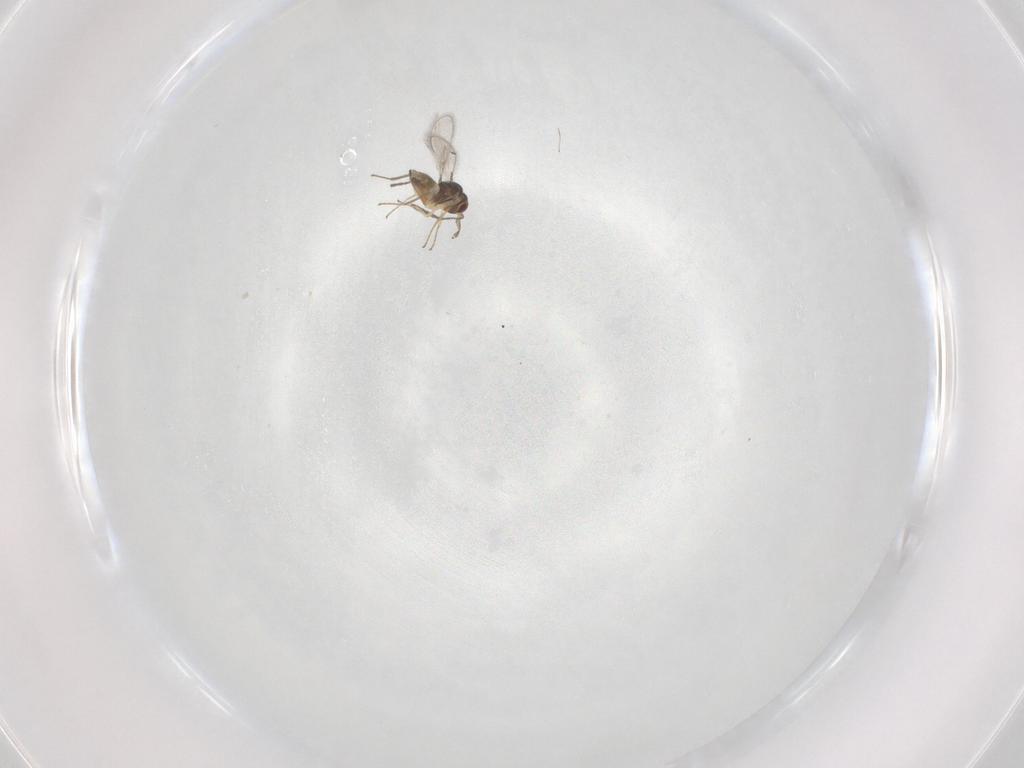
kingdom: Animalia
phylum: Arthropoda
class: Insecta
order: Hymenoptera
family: Mymaridae
